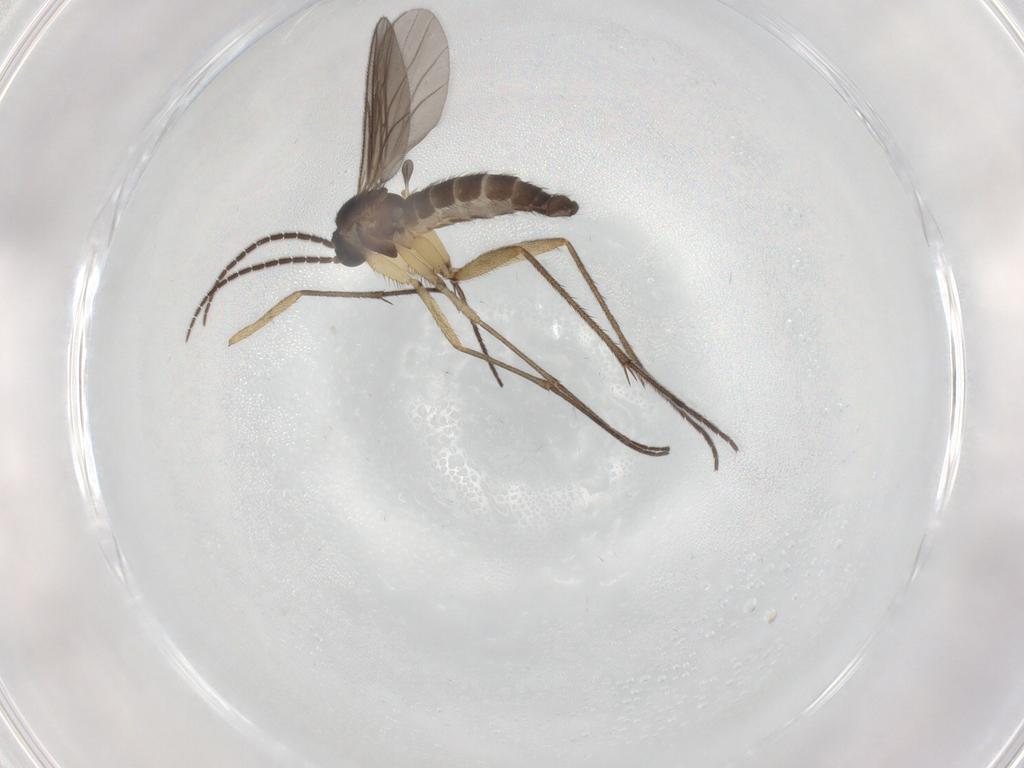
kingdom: Animalia
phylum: Arthropoda
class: Insecta
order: Diptera
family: Sciaridae
